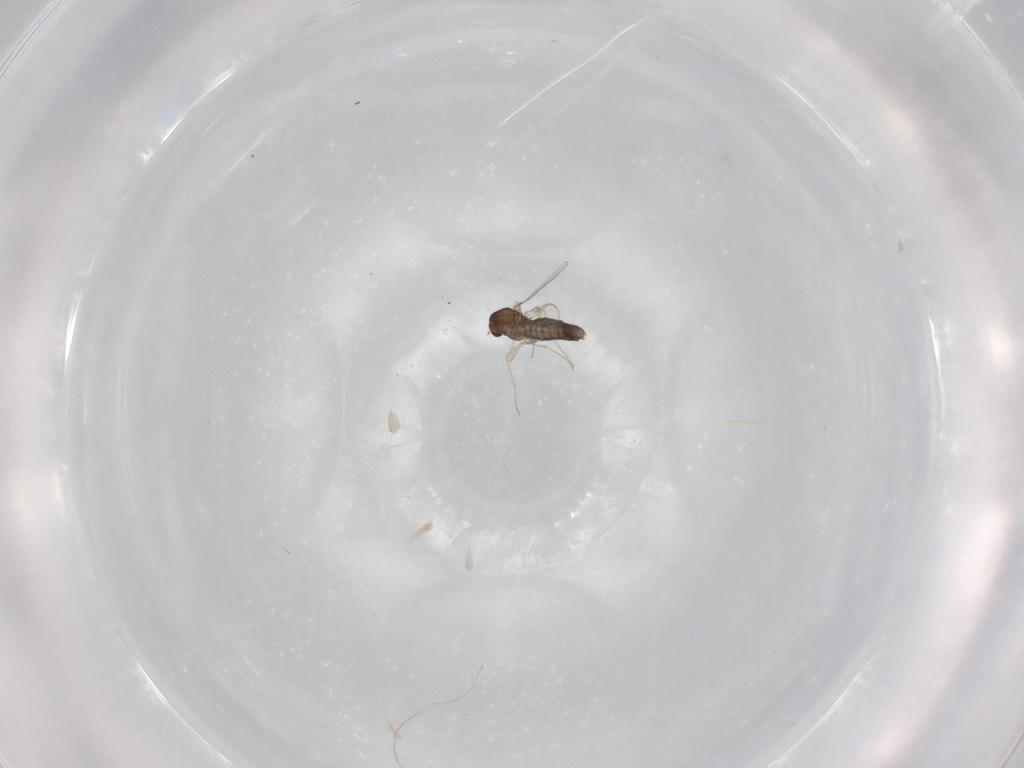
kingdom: Animalia
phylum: Arthropoda
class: Insecta
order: Diptera
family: Chironomidae
